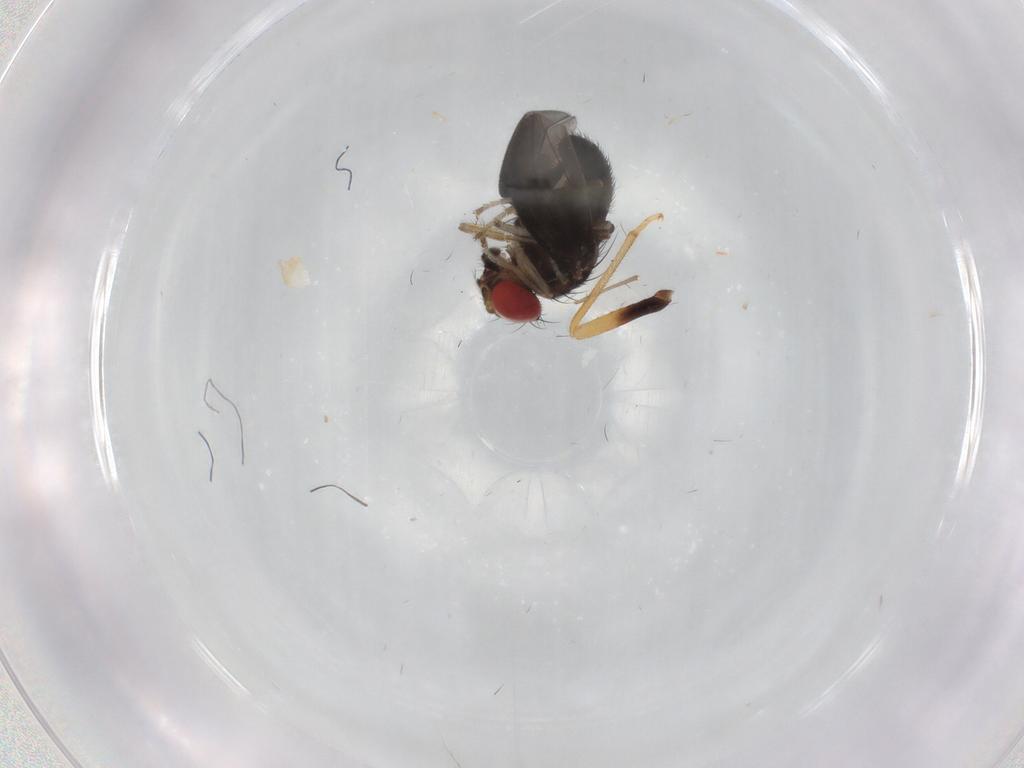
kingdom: Animalia
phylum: Arthropoda
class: Insecta
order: Diptera
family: Drosophilidae
